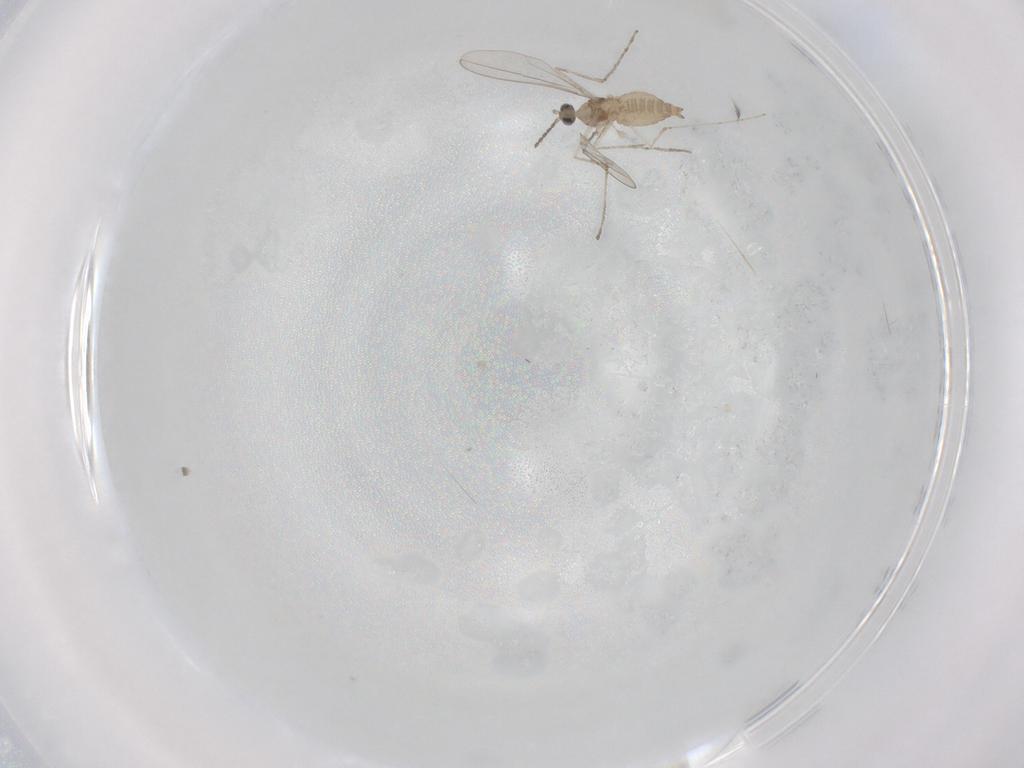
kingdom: Animalia
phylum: Arthropoda
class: Insecta
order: Diptera
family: Cecidomyiidae
